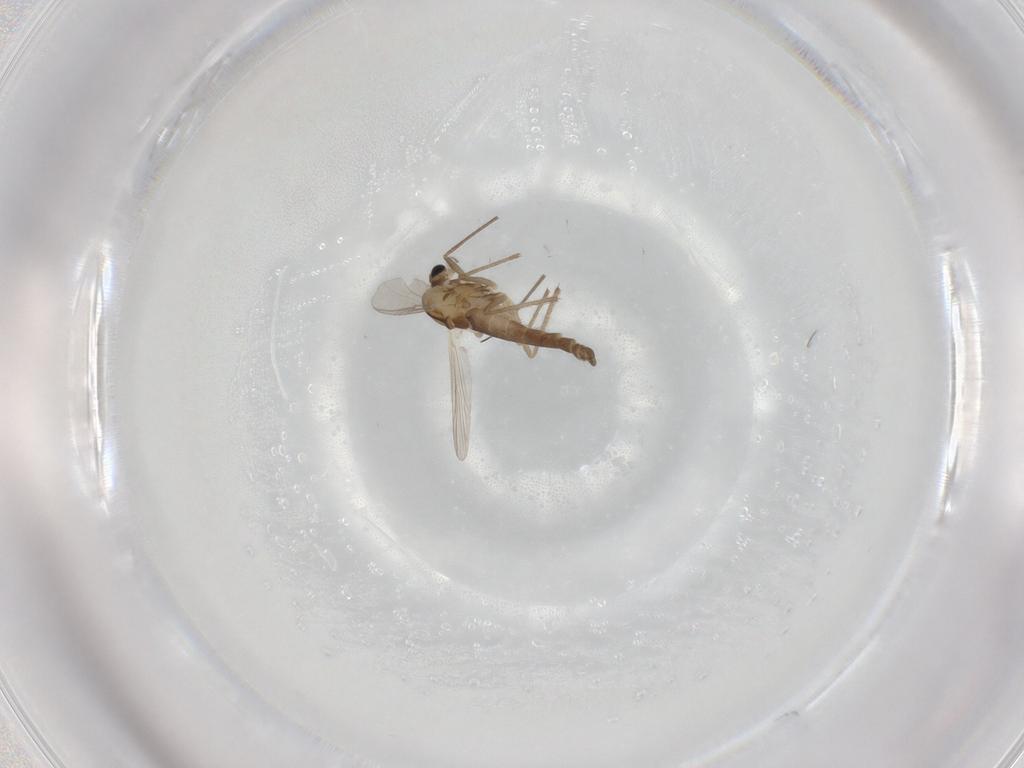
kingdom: Animalia
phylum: Arthropoda
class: Insecta
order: Diptera
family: Chironomidae
